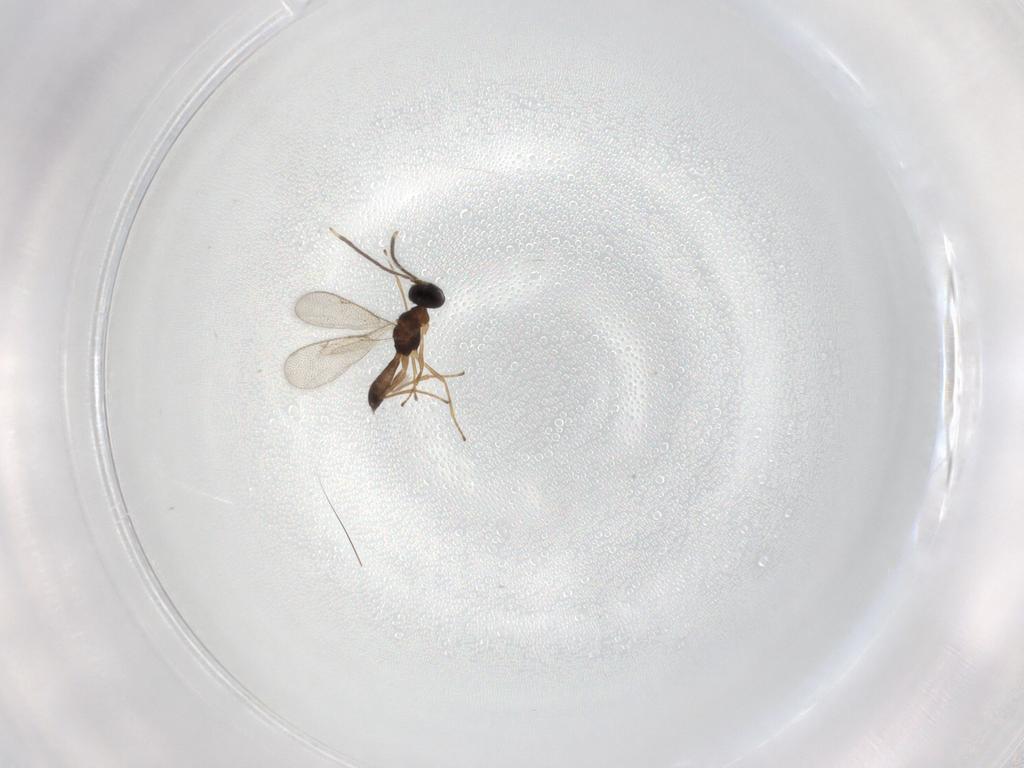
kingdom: Animalia
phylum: Arthropoda
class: Insecta
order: Hymenoptera
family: Pteromalidae
